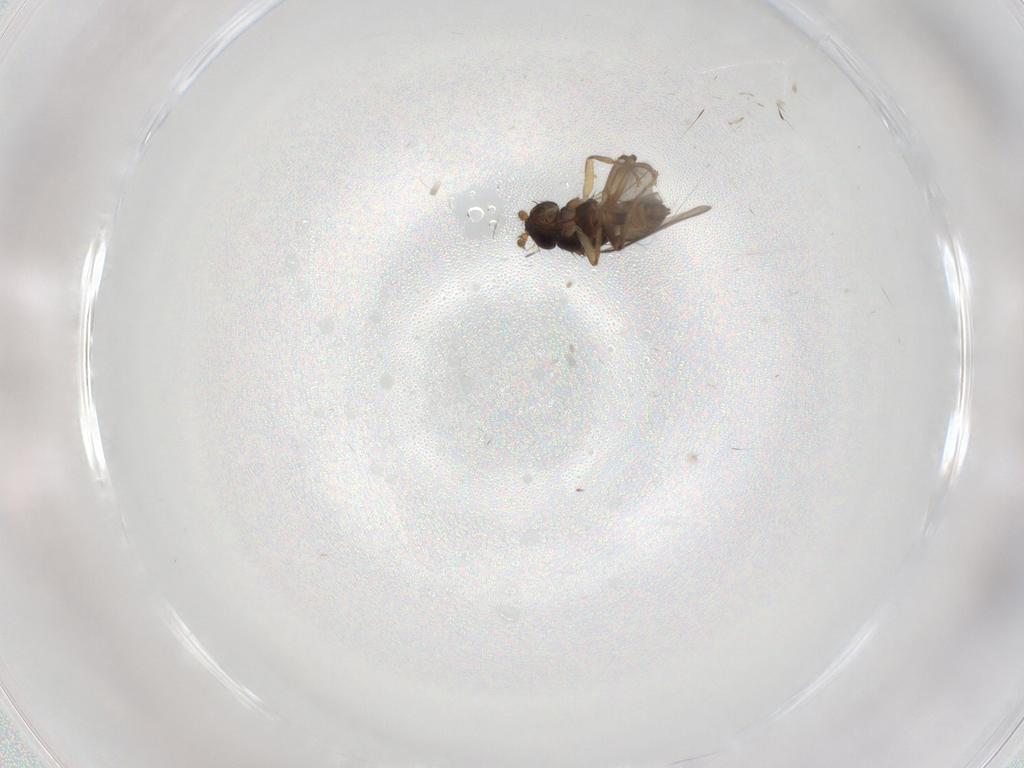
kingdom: Animalia
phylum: Arthropoda
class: Insecta
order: Diptera
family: Sphaeroceridae
